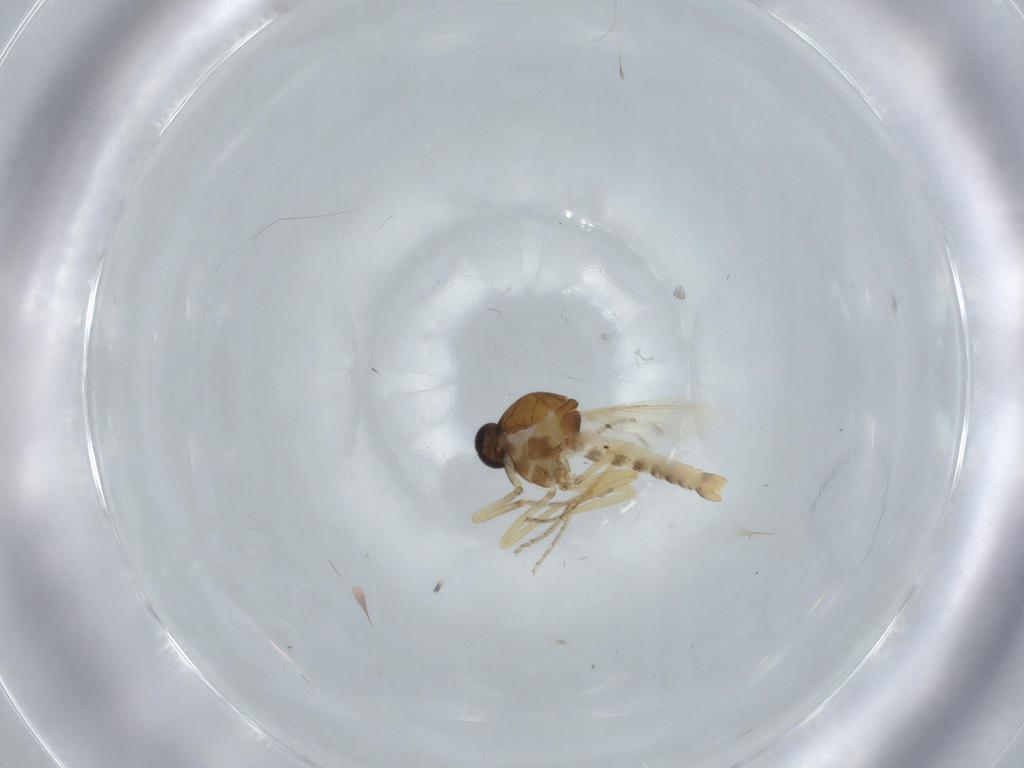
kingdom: Animalia
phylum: Arthropoda
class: Insecta
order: Diptera
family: Ceratopogonidae
